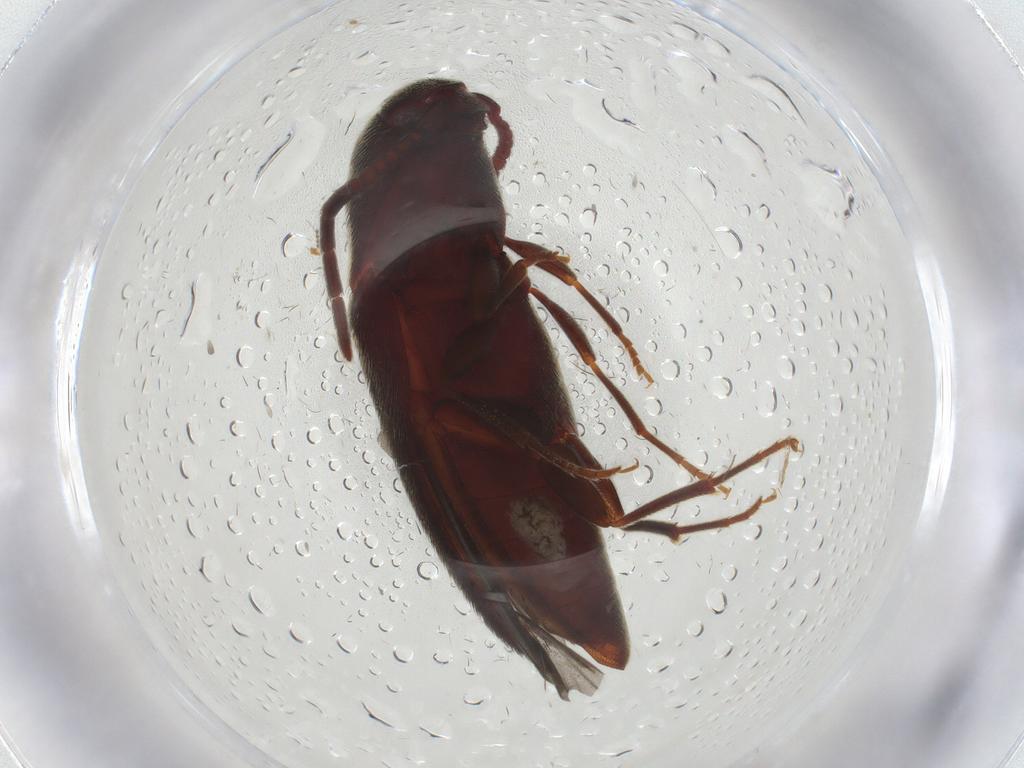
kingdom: Animalia
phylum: Arthropoda
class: Insecta
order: Coleoptera
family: Eucnemidae
